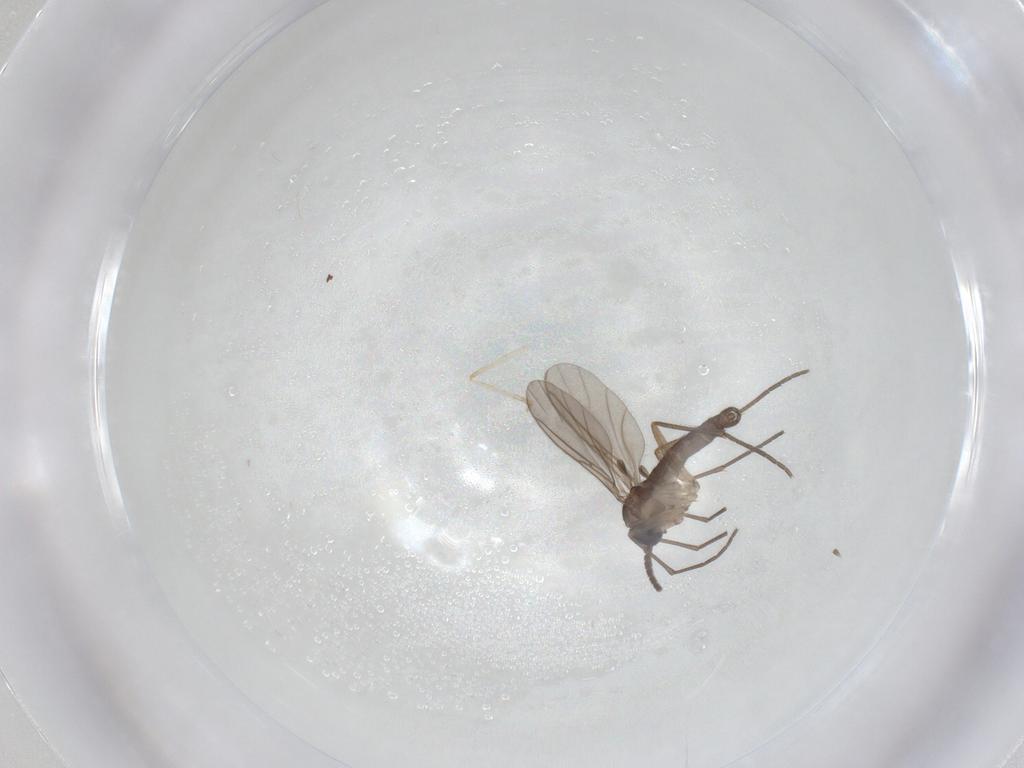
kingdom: Animalia
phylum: Arthropoda
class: Insecta
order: Diptera
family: Sciaridae
